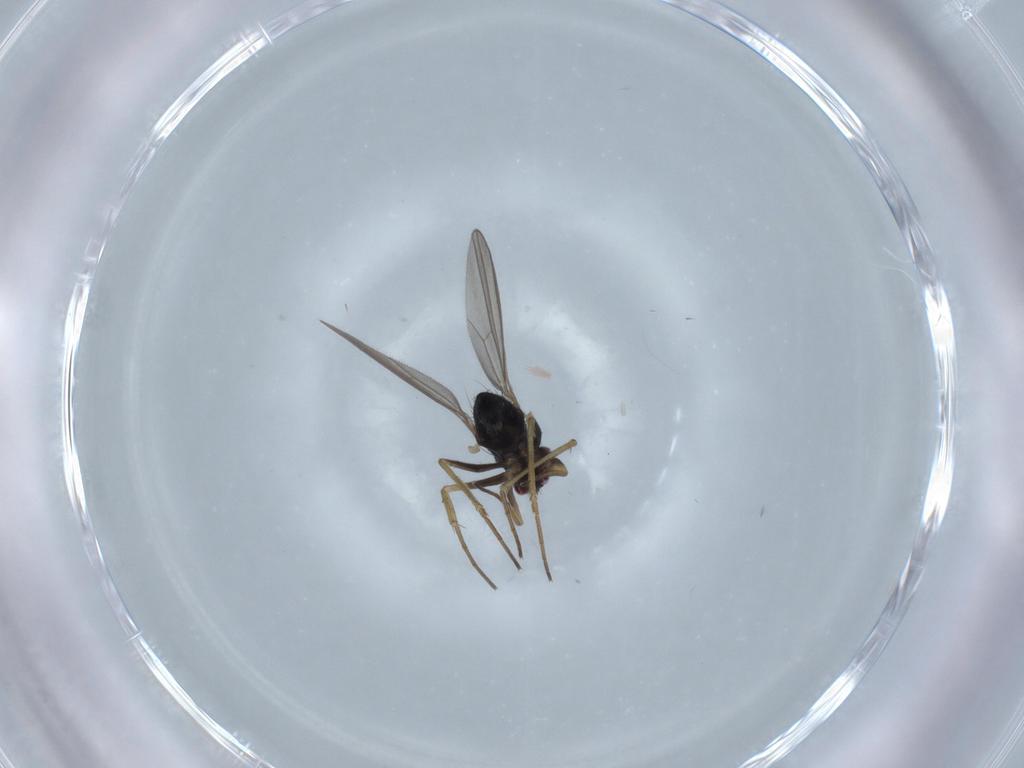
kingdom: Animalia
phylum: Arthropoda
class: Insecta
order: Diptera
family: Dolichopodidae
